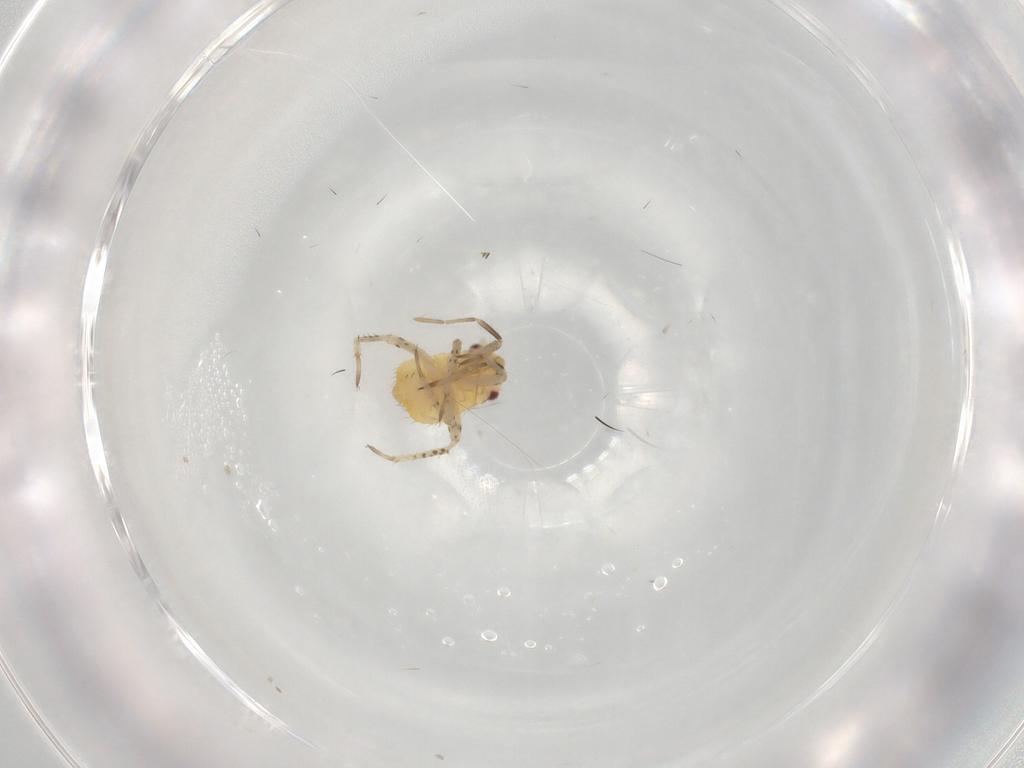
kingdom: Animalia
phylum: Arthropoda
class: Insecta
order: Hemiptera
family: Miridae
